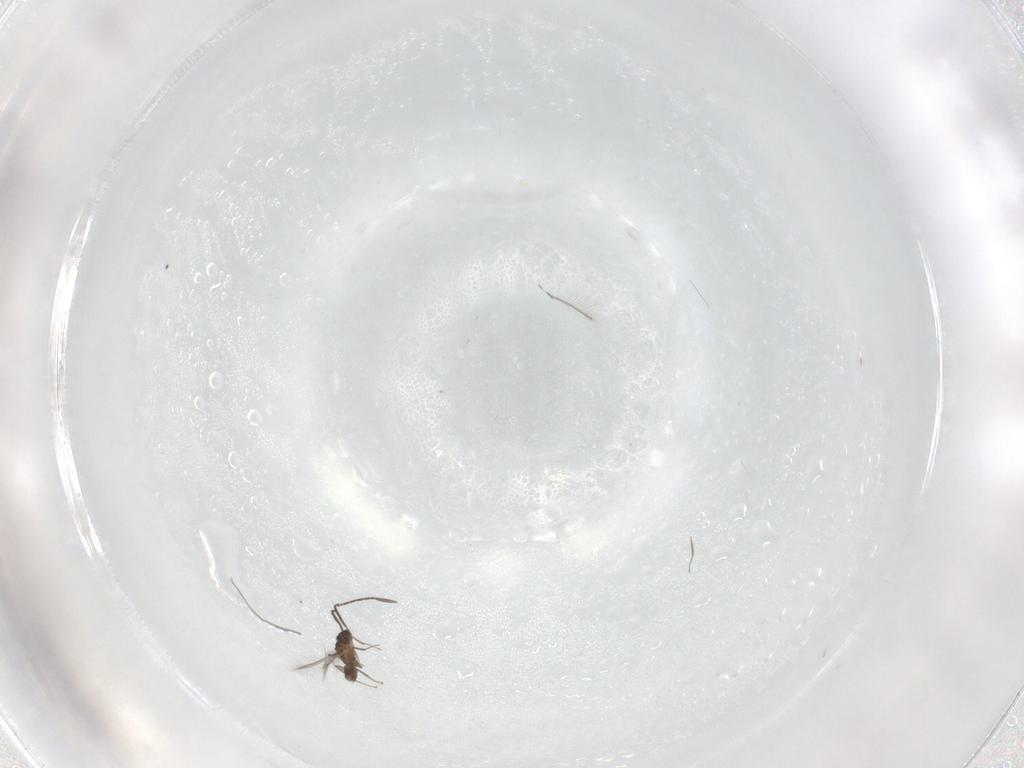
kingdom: Animalia
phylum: Arthropoda
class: Insecta
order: Hymenoptera
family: Mymaridae
